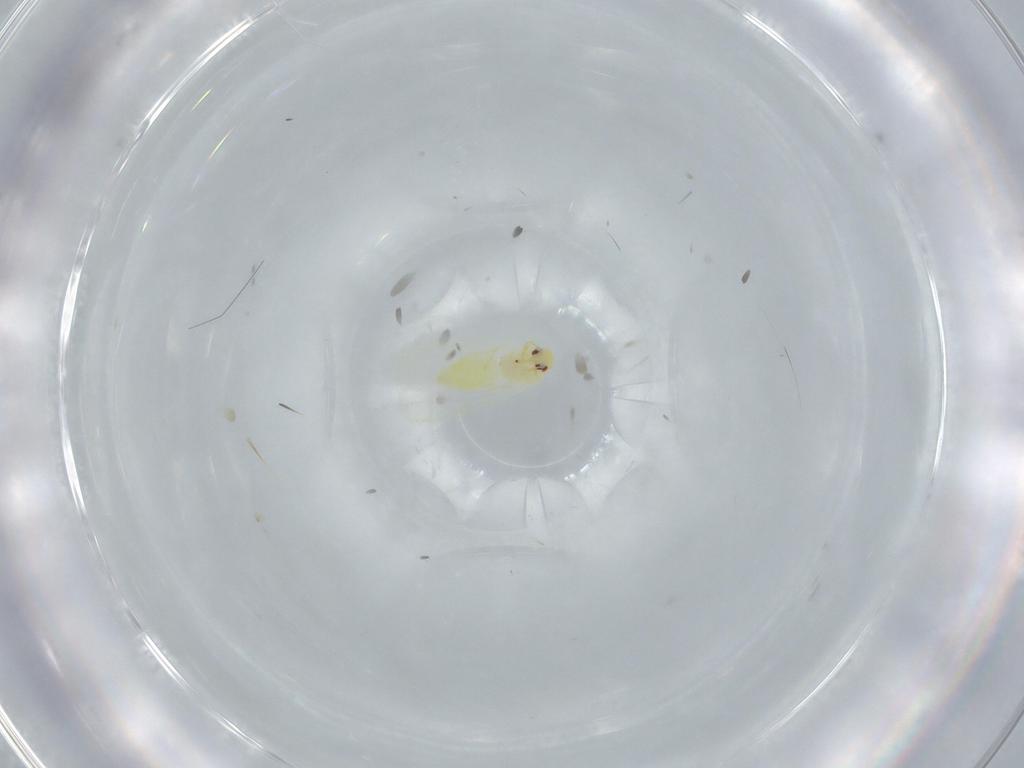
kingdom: Animalia
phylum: Arthropoda
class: Insecta
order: Hemiptera
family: Aleyrodidae
